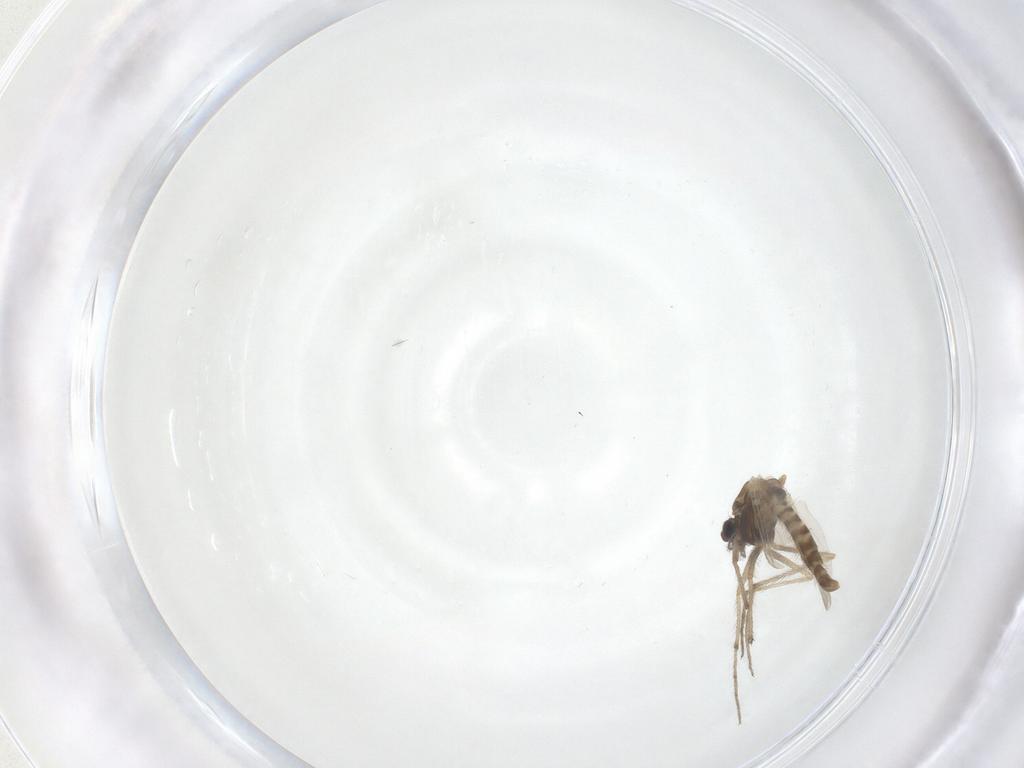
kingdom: Animalia
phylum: Arthropoda
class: Insecta
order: Diptera
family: Chironomidae
